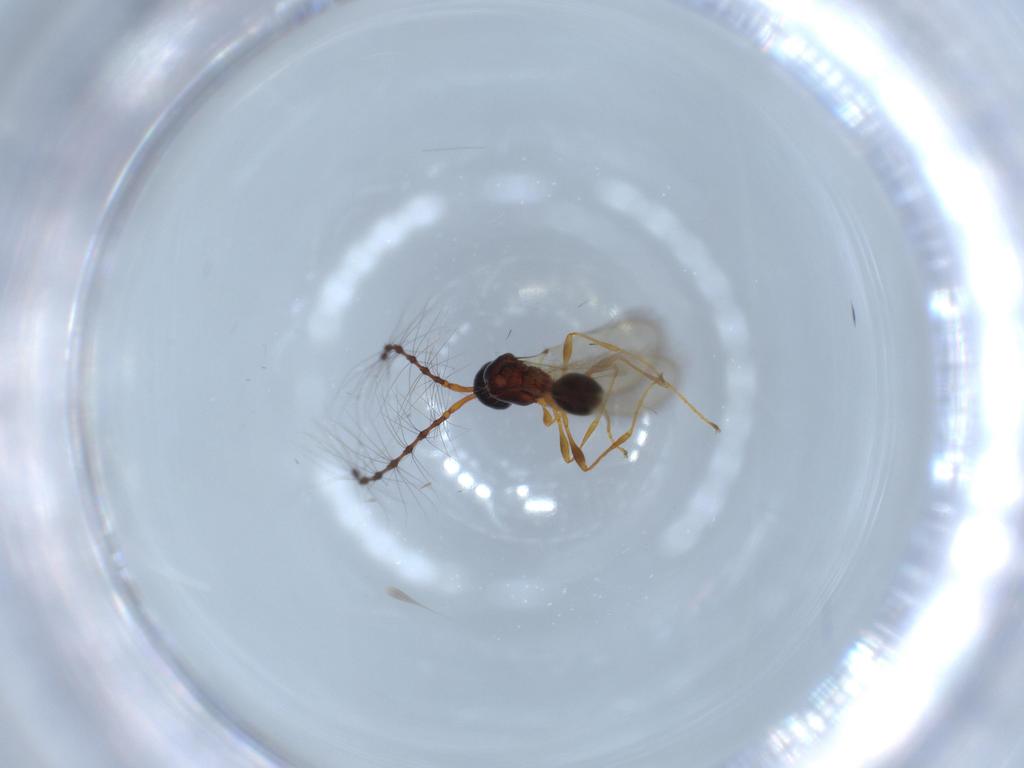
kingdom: Animalia
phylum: Arthropoda
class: Insecta
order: Hymenoptera
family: Diapriidae
